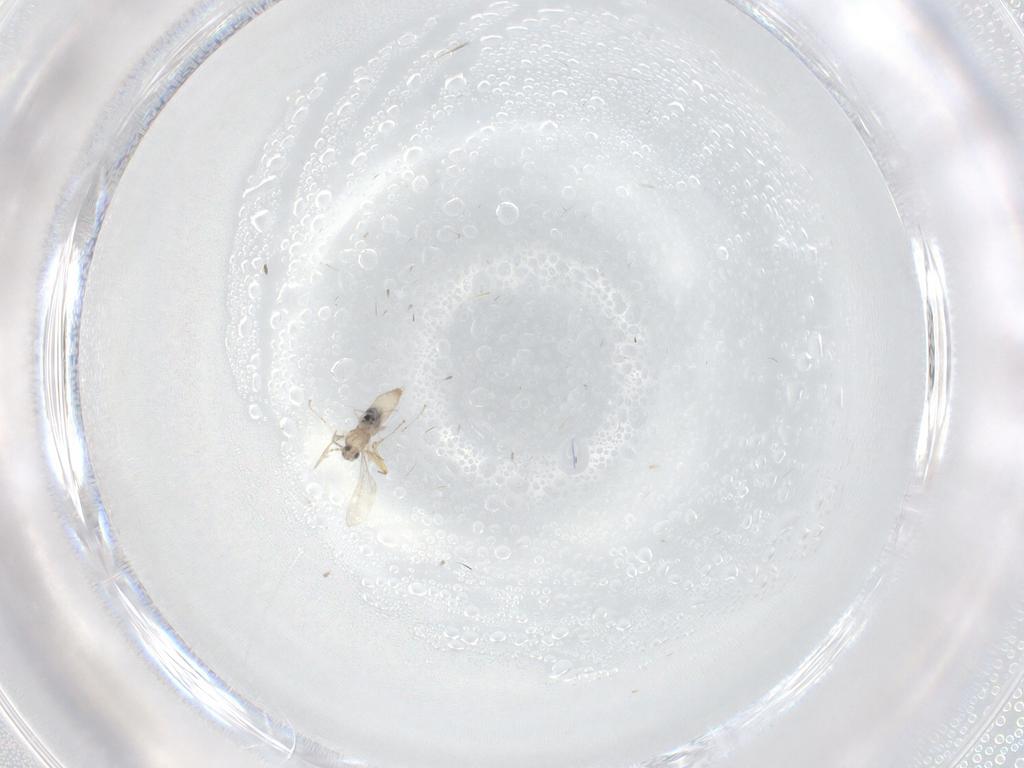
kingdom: Animalia
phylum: Arthropoda
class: Insecta
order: Diptera
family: Cecidomyiidae
